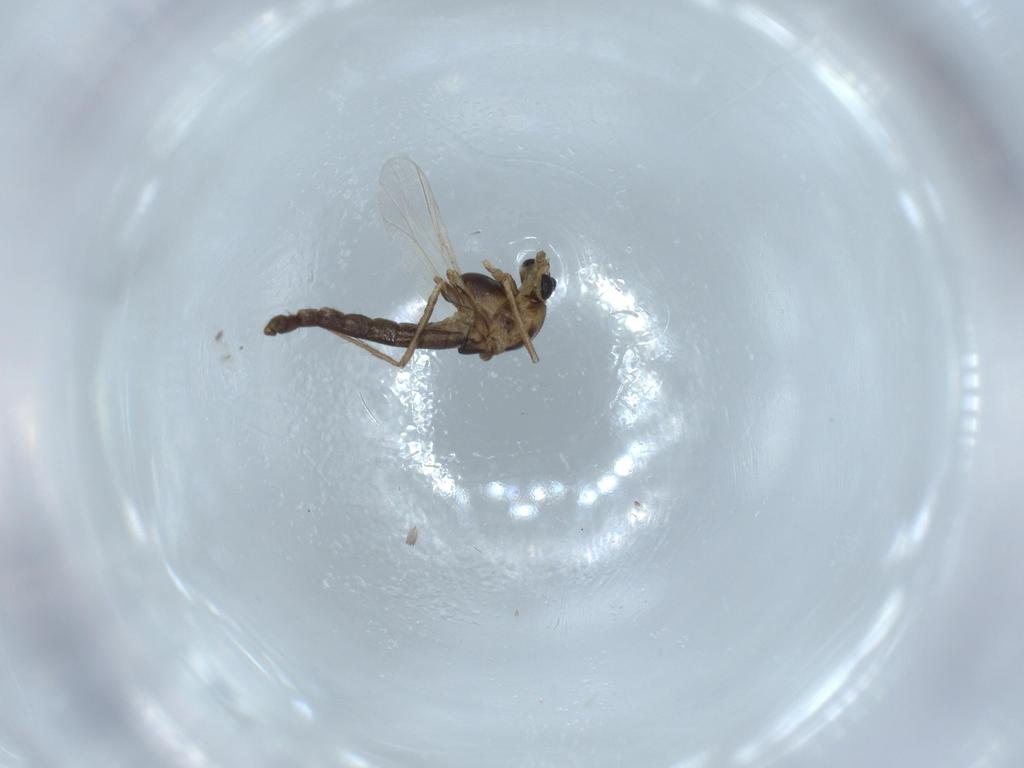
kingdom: Animalia
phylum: Arthropoda
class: Insecta
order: Diptera
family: Chironomidae
